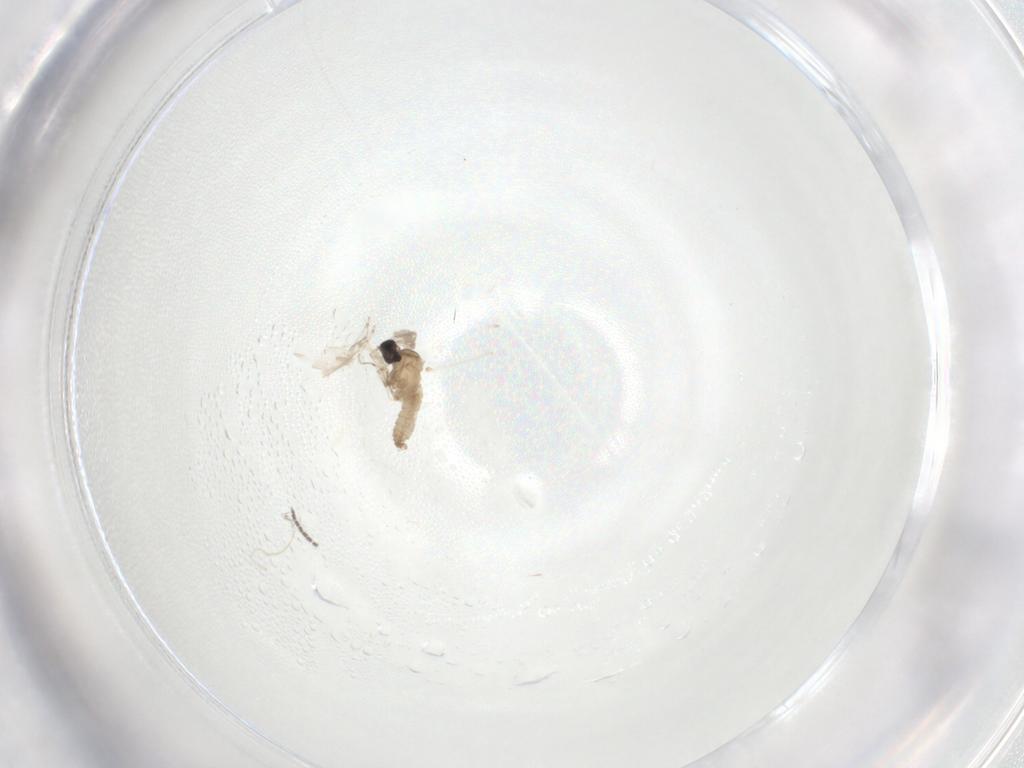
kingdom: Animalia
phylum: Arthropoda
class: Insecta
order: Diptera
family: Cecidomyiidae
